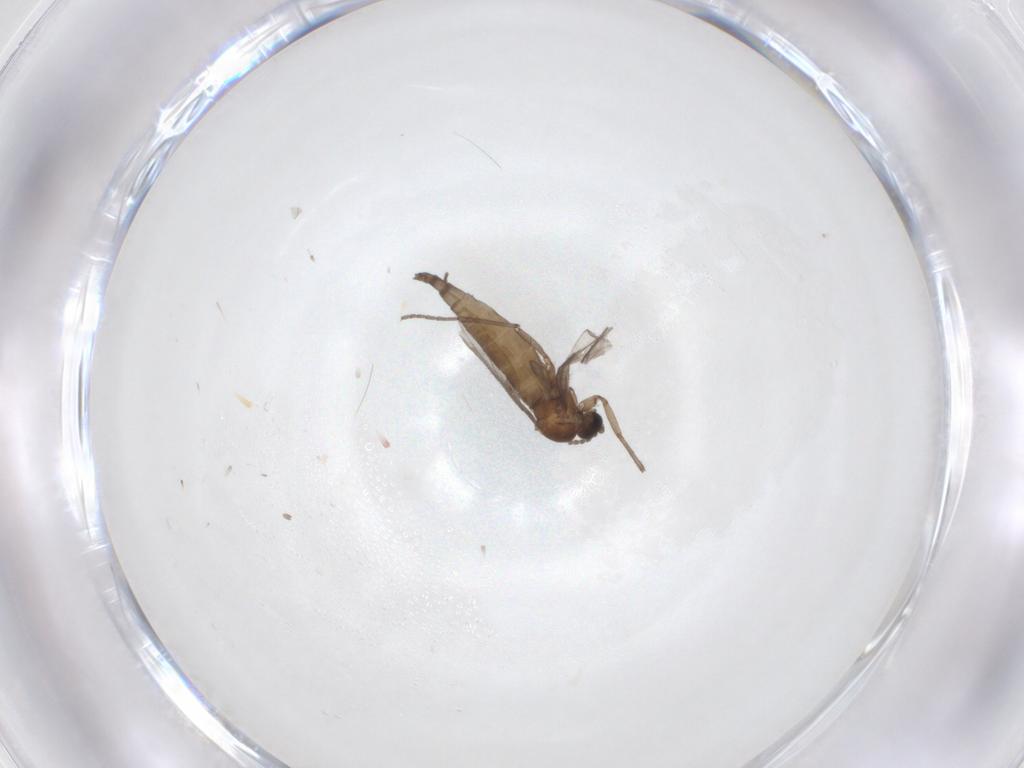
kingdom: Animalia
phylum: Arthropoda
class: Insecta
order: Diptera
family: Sciaridae
